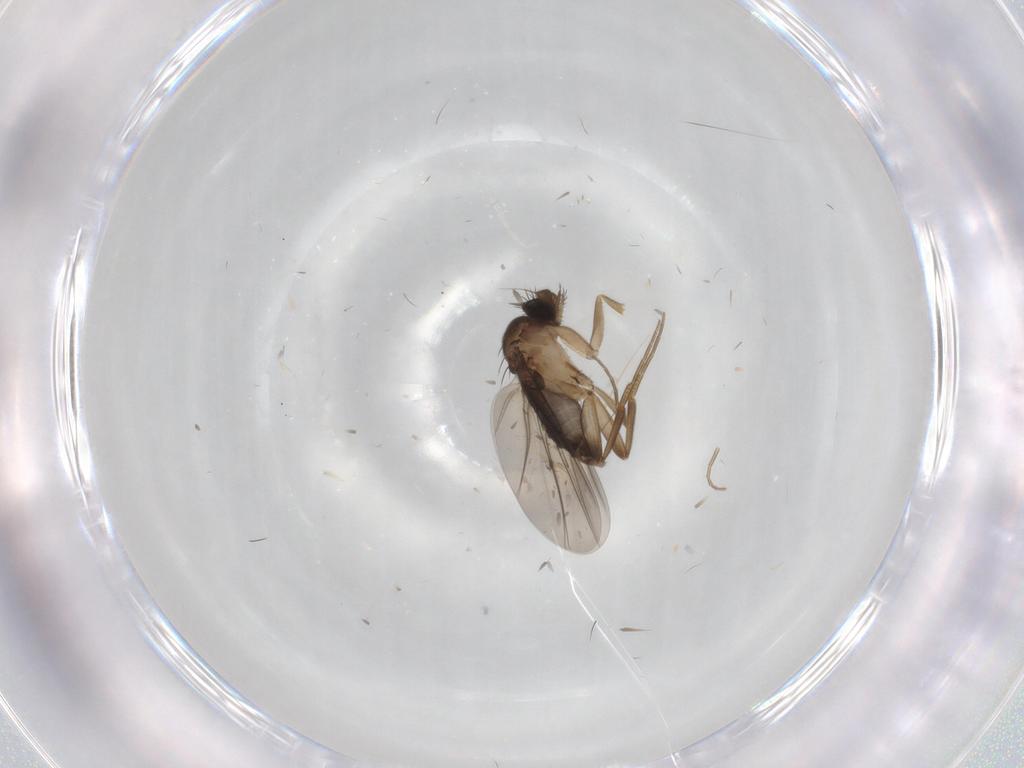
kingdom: Animalia
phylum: Arthropoda
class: Insecta
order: Diptera
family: Phoridae
